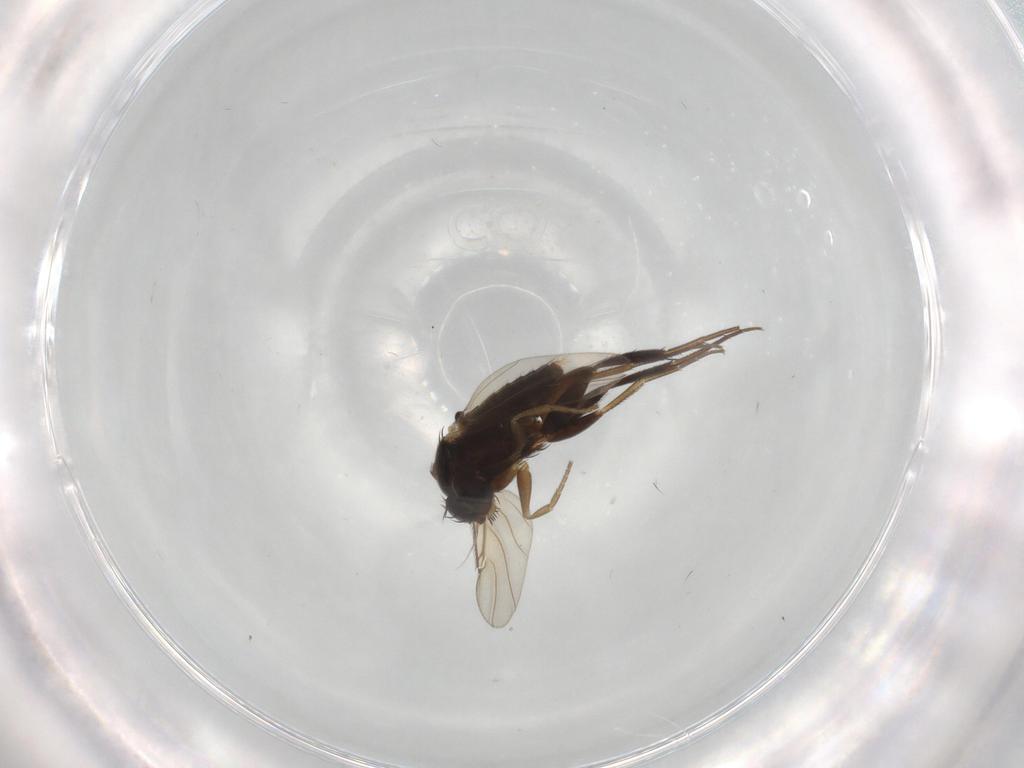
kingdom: Animalia
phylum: Arthropoda
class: Insecta
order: Diptera
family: Phoridae
